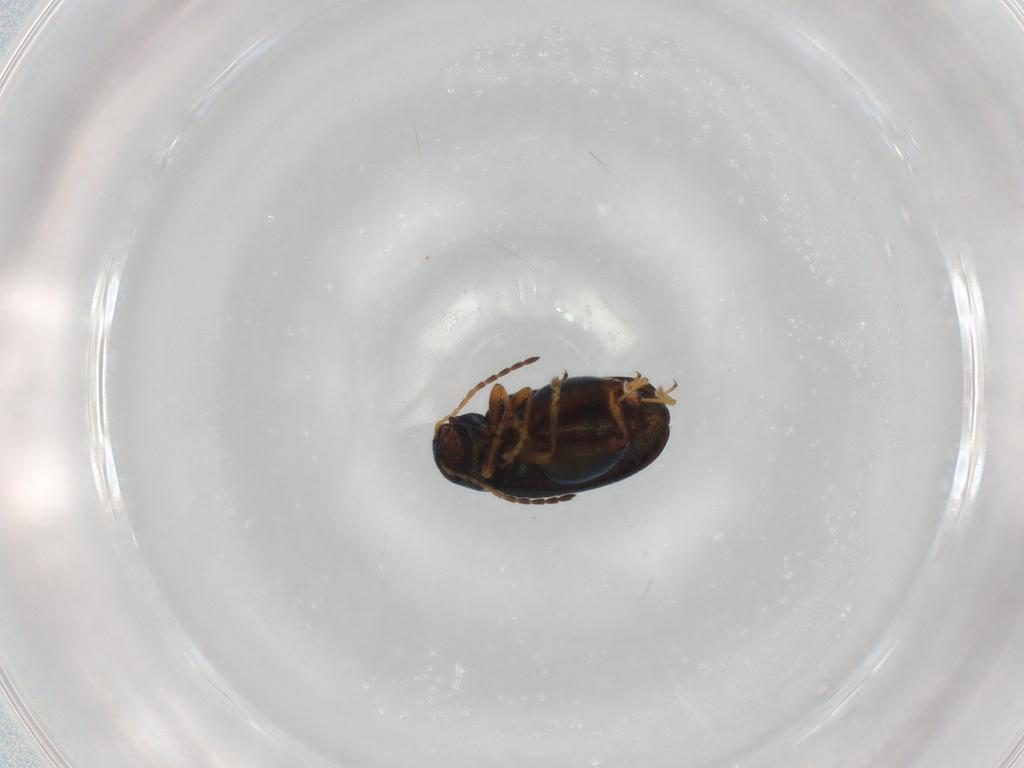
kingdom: Animalia
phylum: Arthropoda
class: Insecta
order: Coleoptera
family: Chrysomelidae
